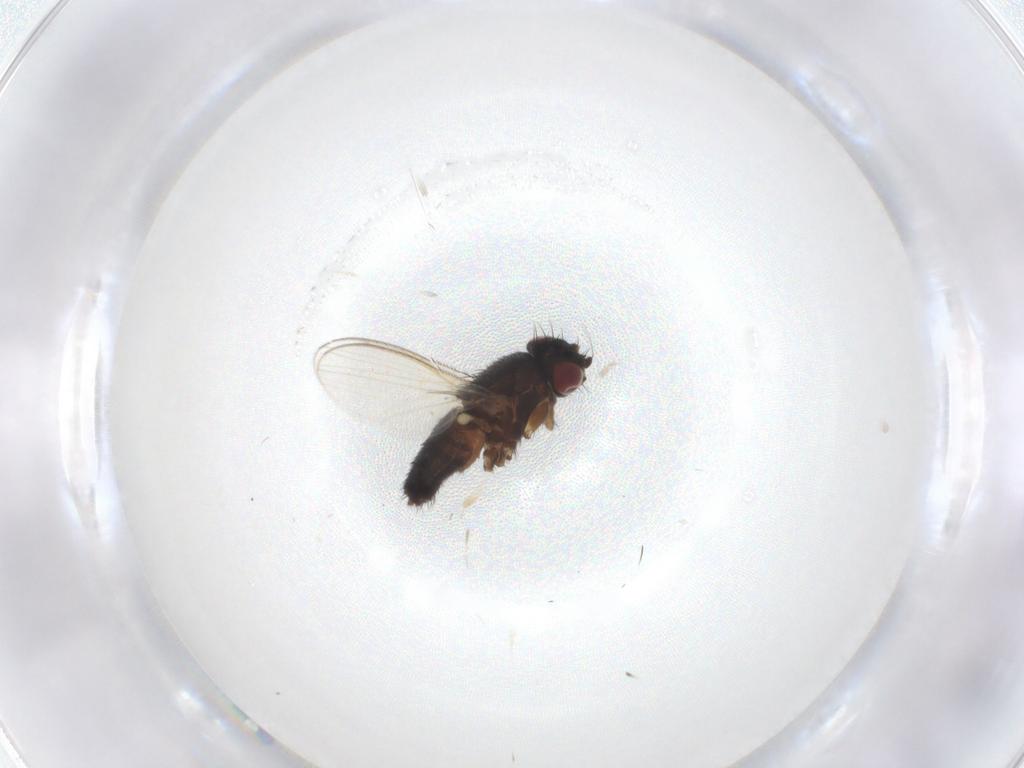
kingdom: Animalia
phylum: Arthropoda
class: Insecta
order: Diptera
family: Milichiidae
